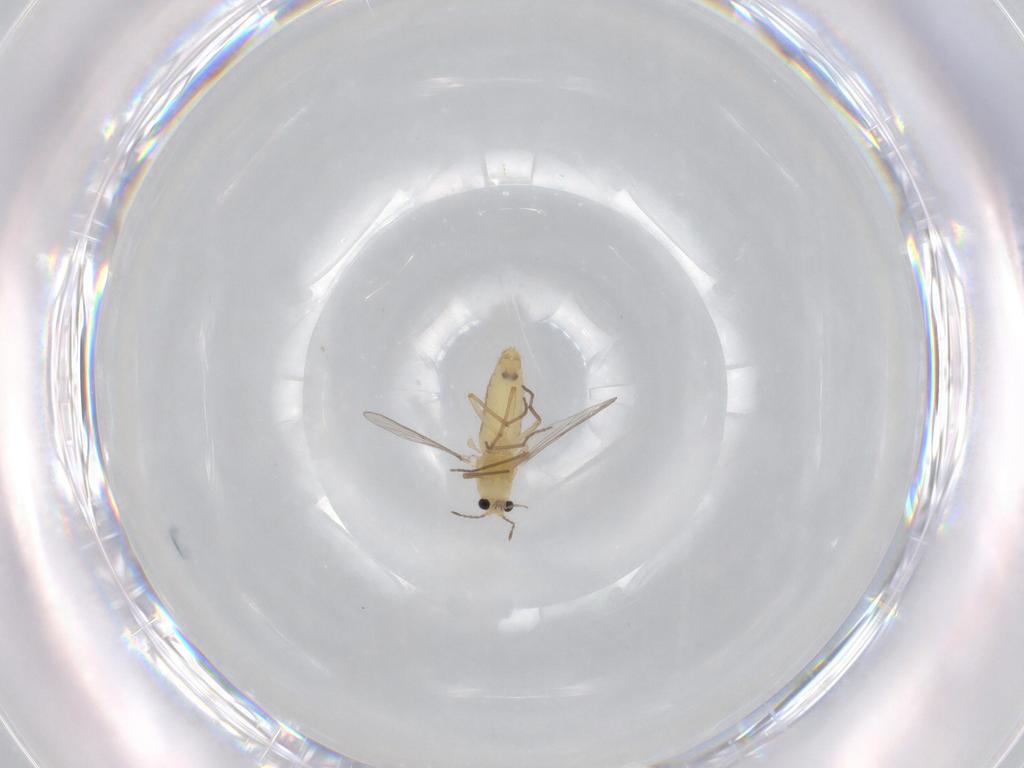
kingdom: Animalia
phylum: Arthropoda
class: Insecta
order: Diptera
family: Chironomidae
